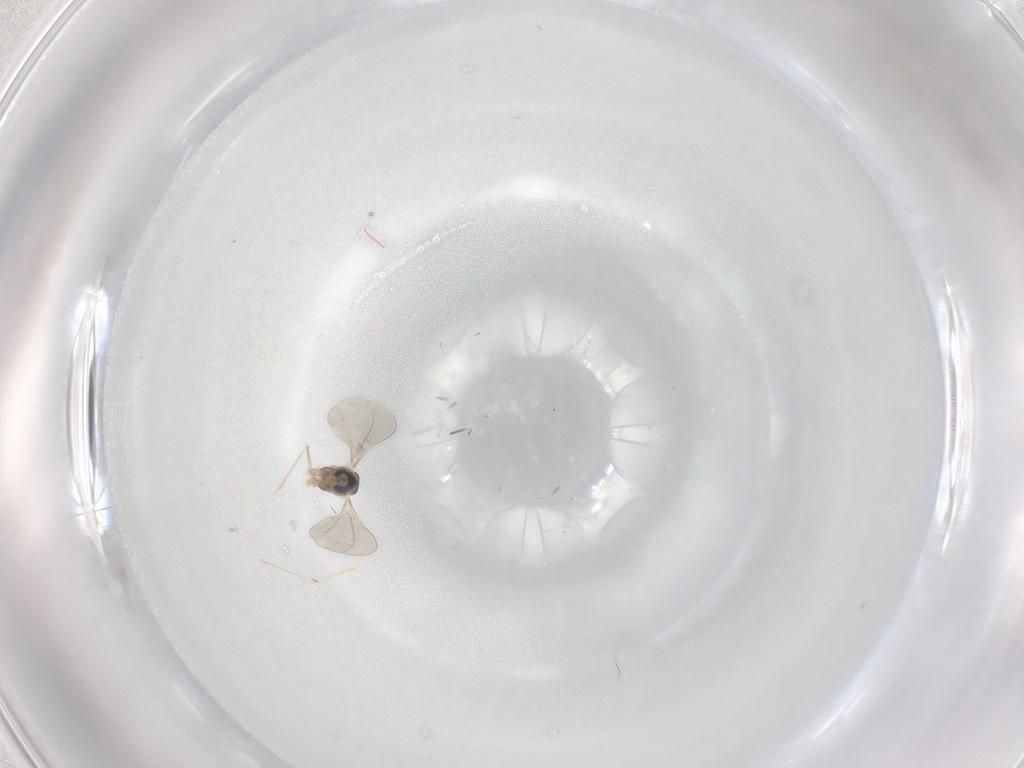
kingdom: Animalia
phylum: Arthropoda
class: Insecta
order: Diptera
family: Cecidomyiidae
